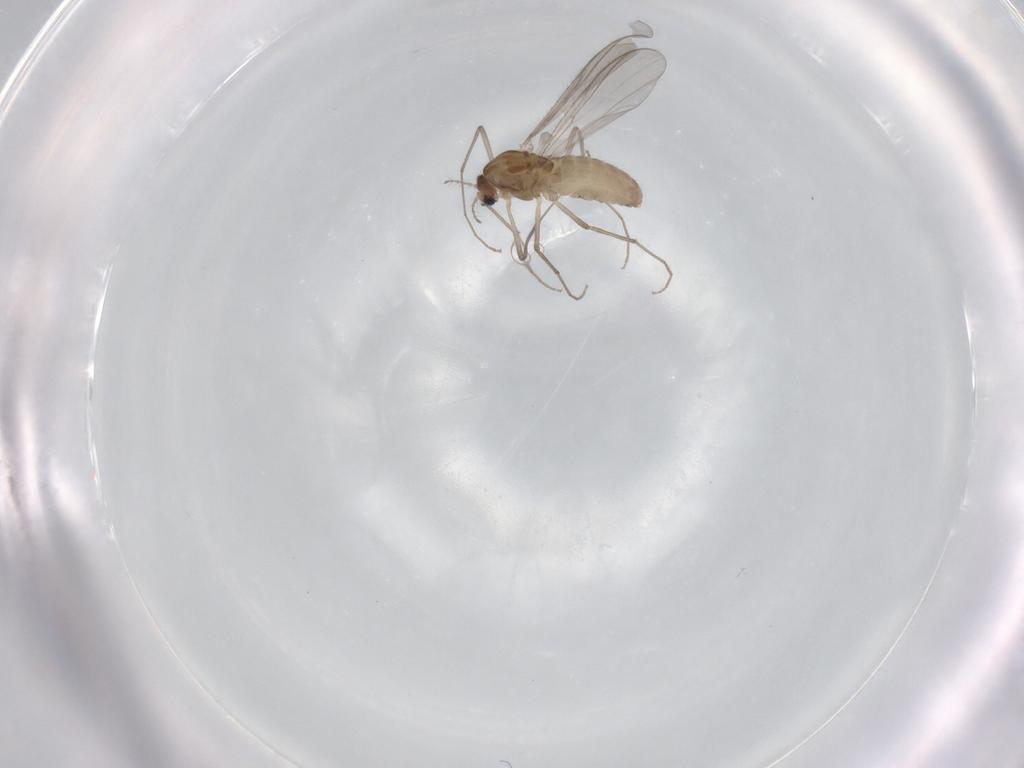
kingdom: Animalia
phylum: Arthropoda
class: Insecta
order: Diptera
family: Chironomidae
